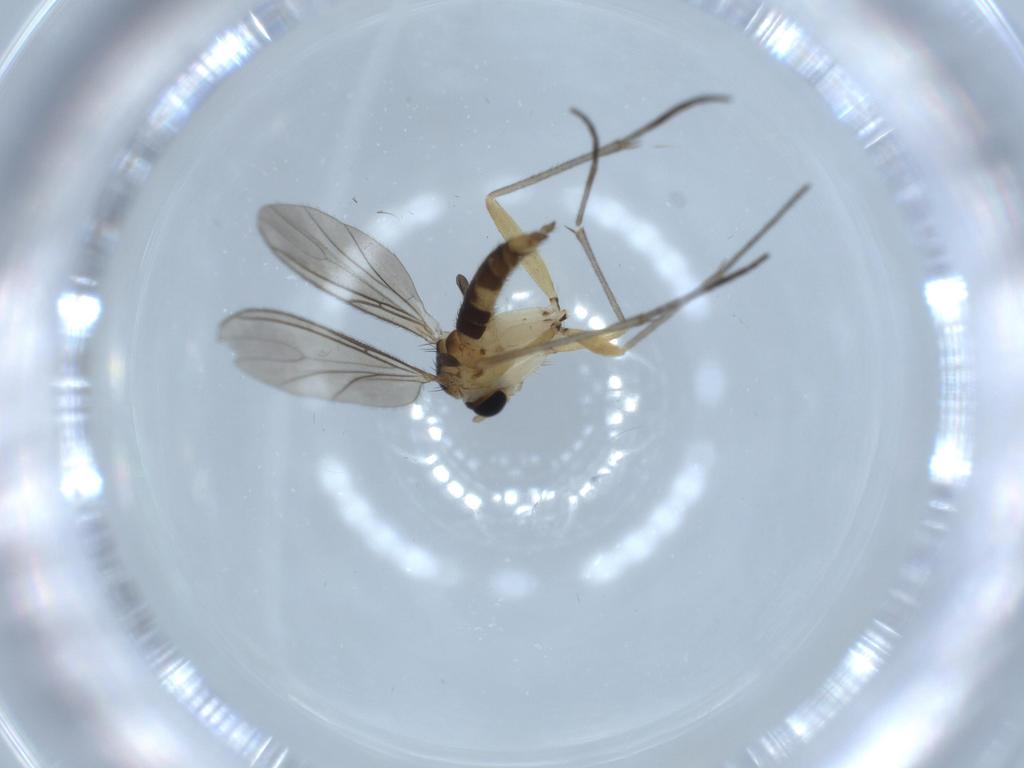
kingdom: Animalia
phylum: Arthropoda
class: Insecta
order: Diptera
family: Sciaridae
